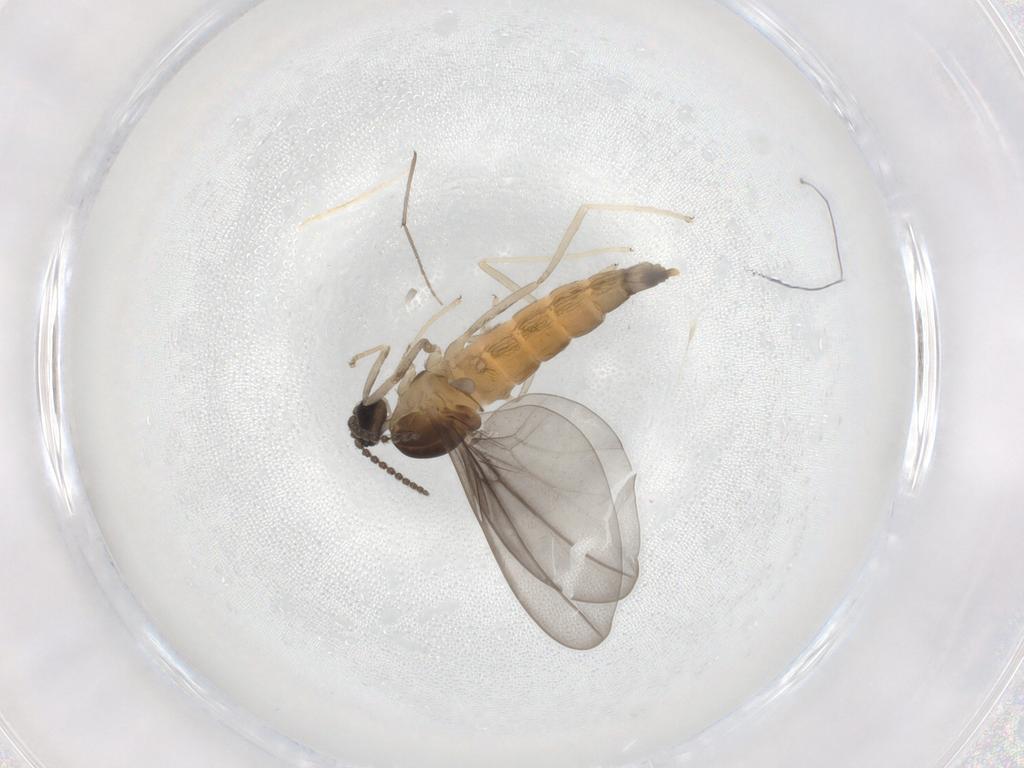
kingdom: Animalia
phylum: Arthropoda
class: Insecta
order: Diptera
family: Cecidomyiidae
